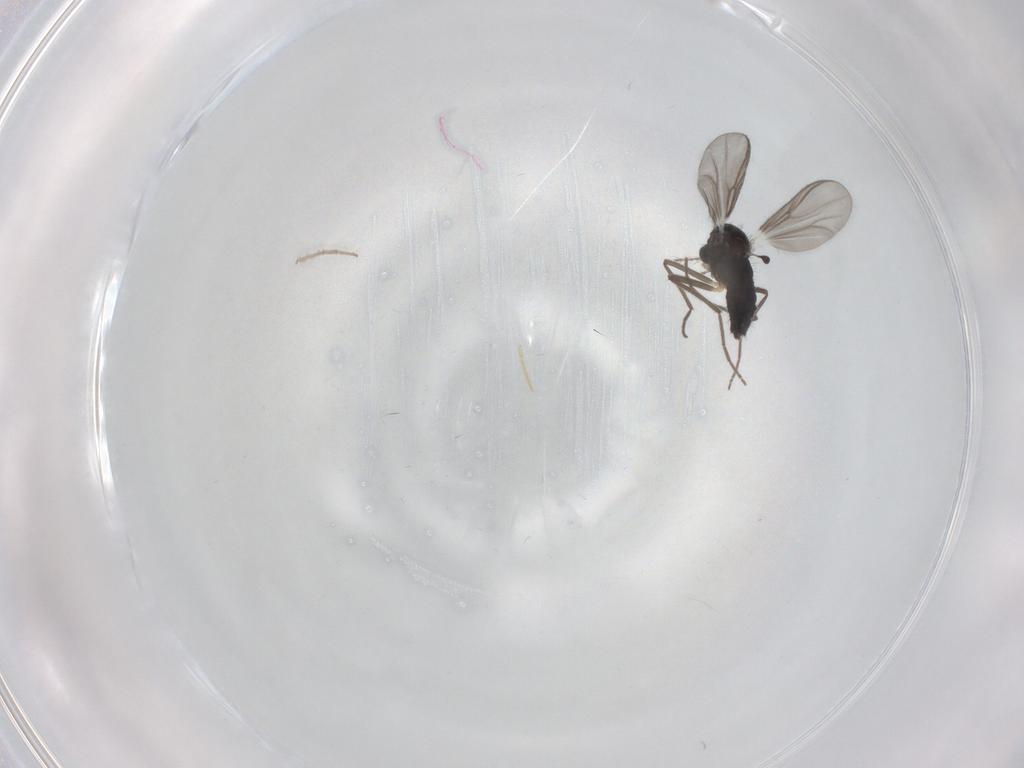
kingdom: Animalia
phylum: Arthropoda
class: Insecta
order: Diptera
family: Chironomidae
